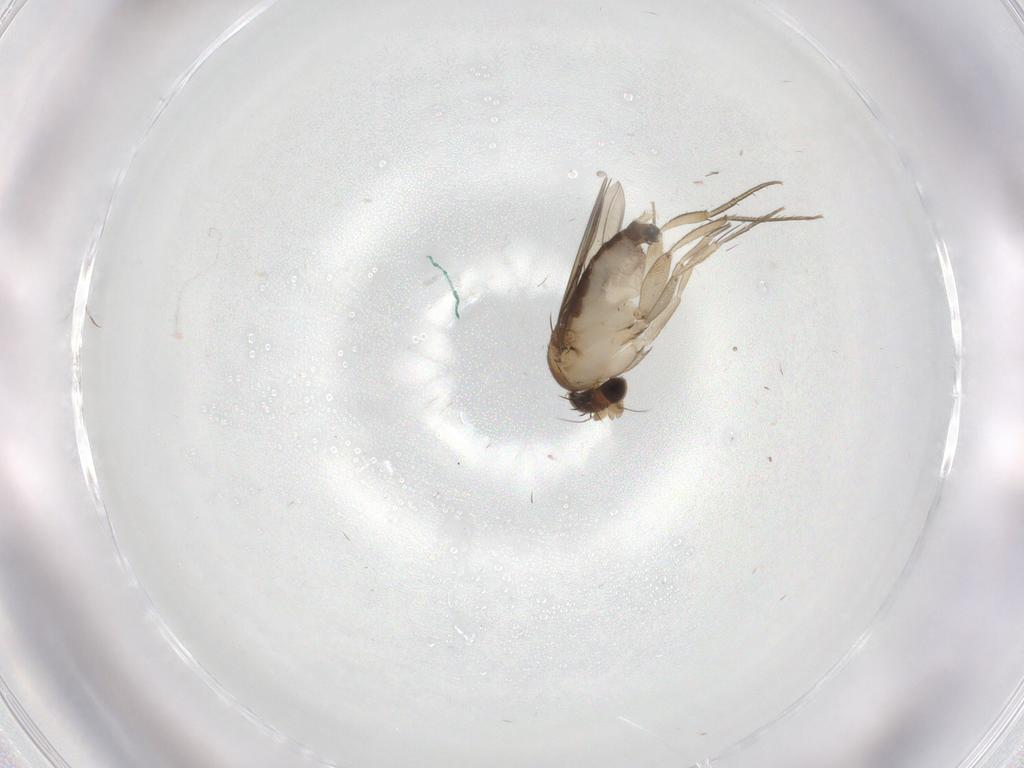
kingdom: Animalia
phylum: Arthropoda
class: Insecta
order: Diptera
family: Phoridae
